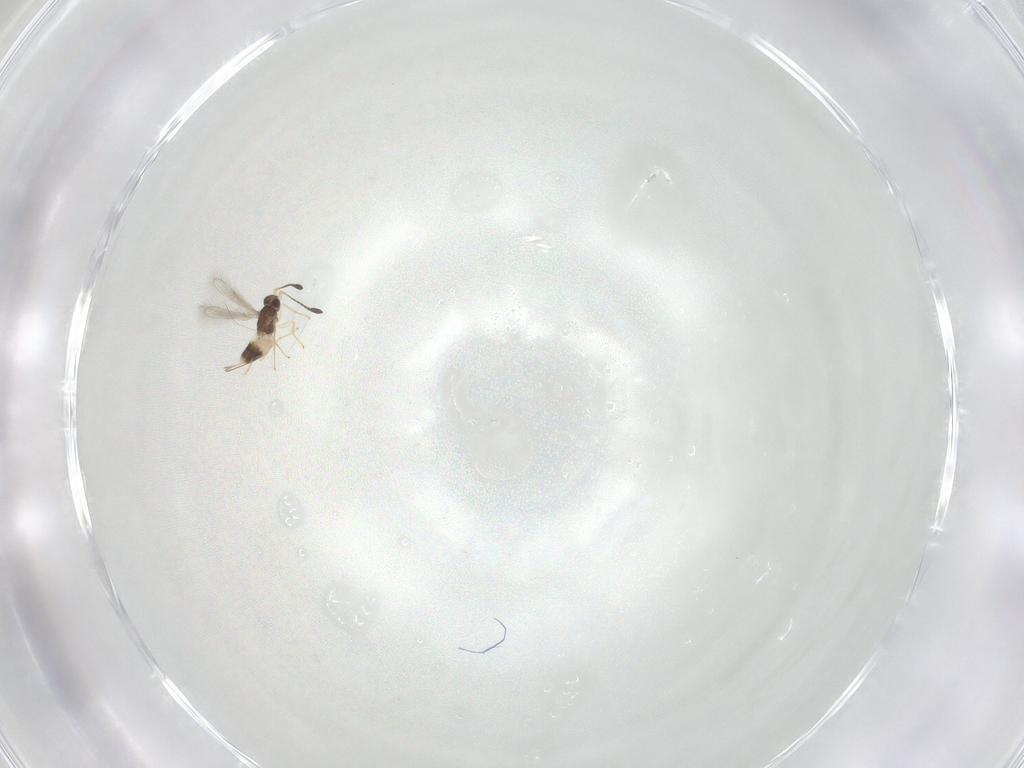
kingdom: Animalia
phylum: Arthropoda
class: Insecta
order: Hymenoptera
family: Mymaridae
